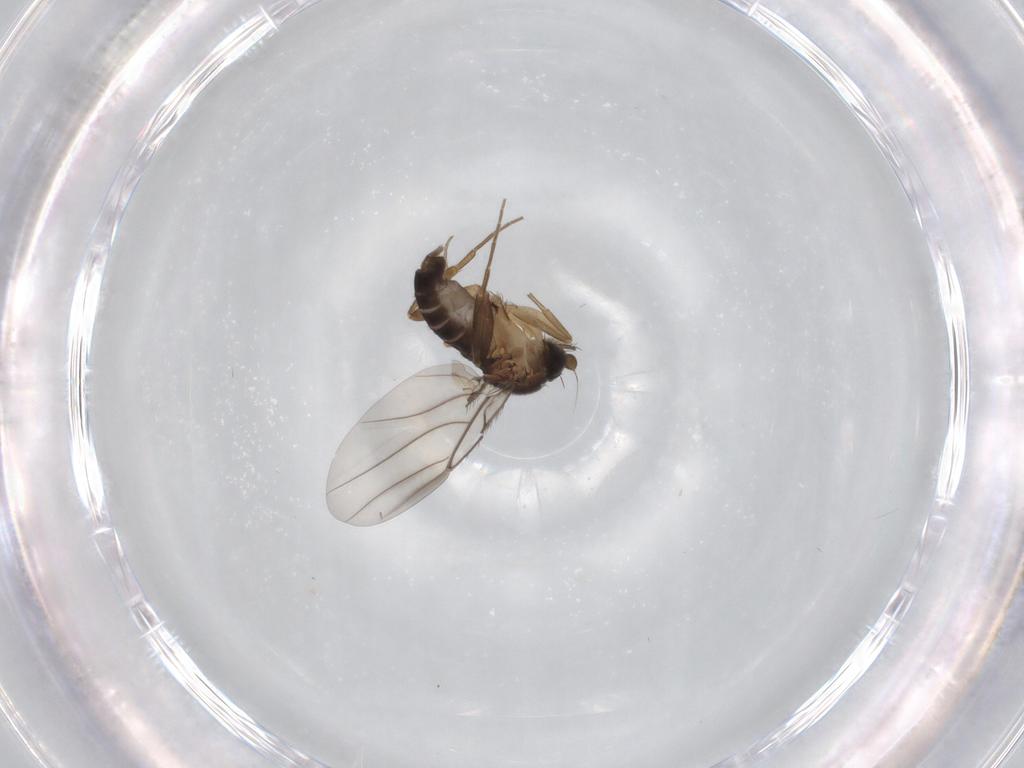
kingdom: Animalia
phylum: Arthropoda
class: Insecta
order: Diptera
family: Phoridae
